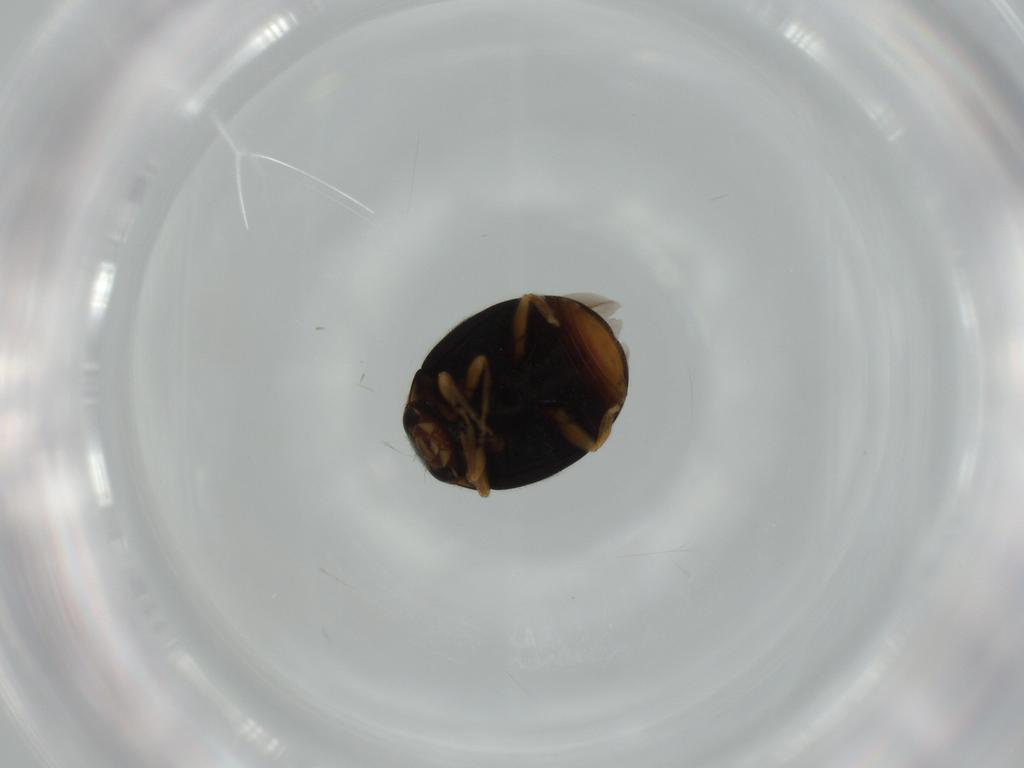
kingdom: Animalia
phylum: Arthropoda
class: Insecta
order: Coleoptera
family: Coccinellidae
